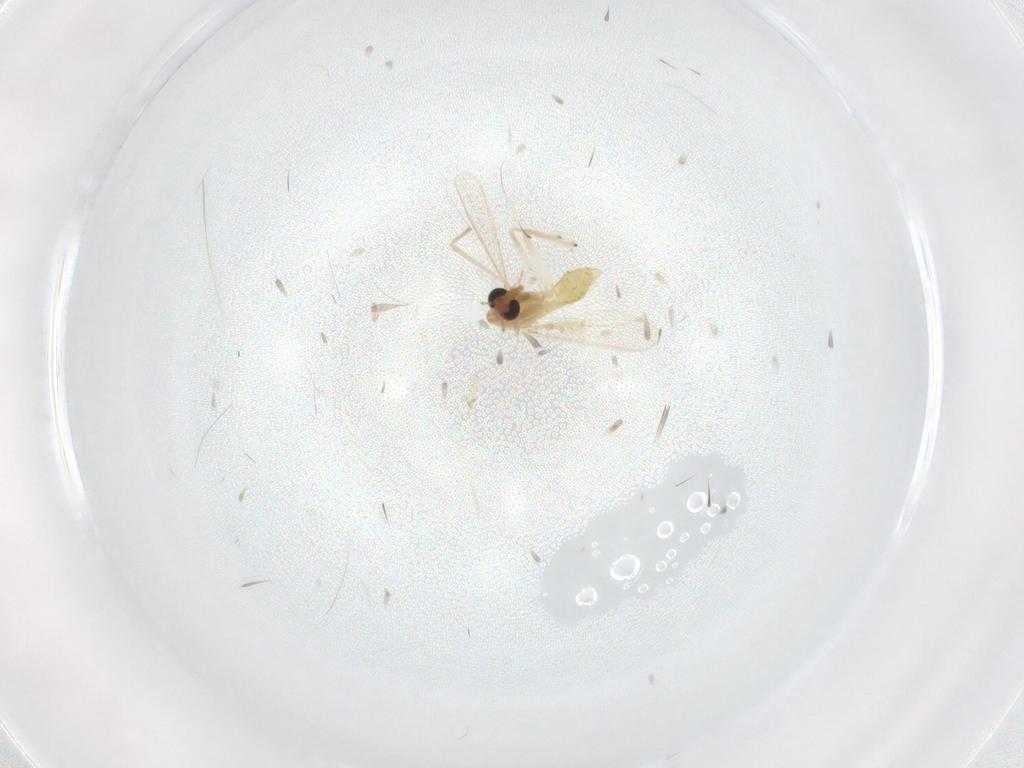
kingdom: Animalia
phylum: Arthropoda
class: Insecta
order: Diptera
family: Chironomidae
